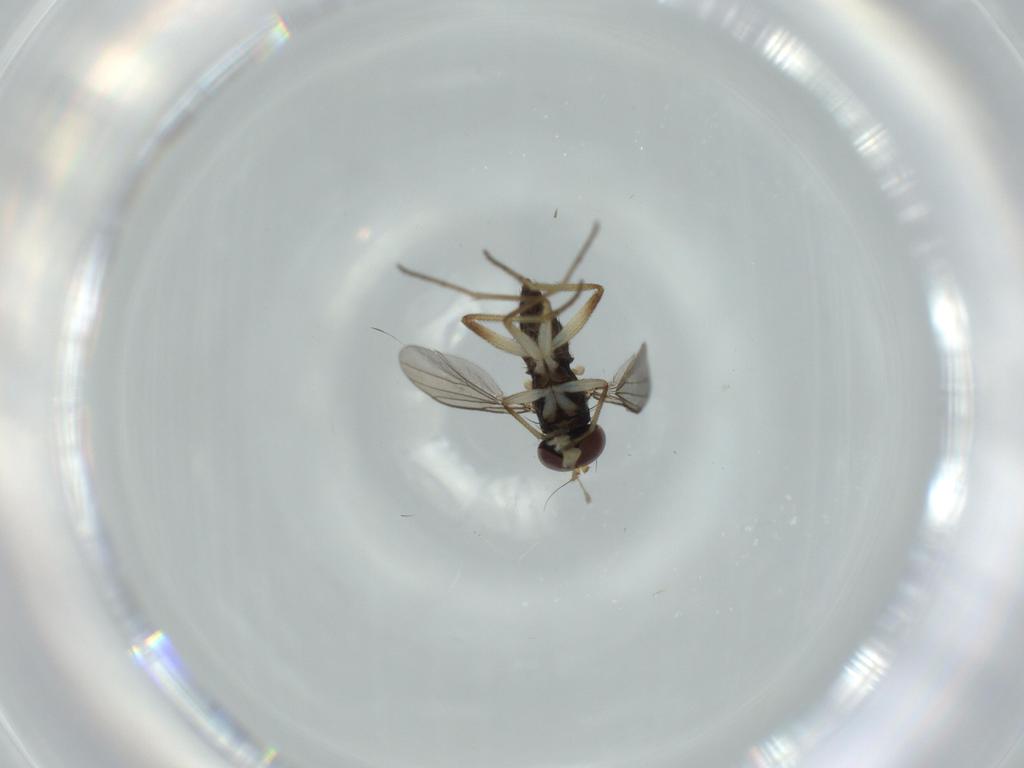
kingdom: Animalia
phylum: Arthropoda
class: Insecta
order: Diptera
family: Dolichopodidae
